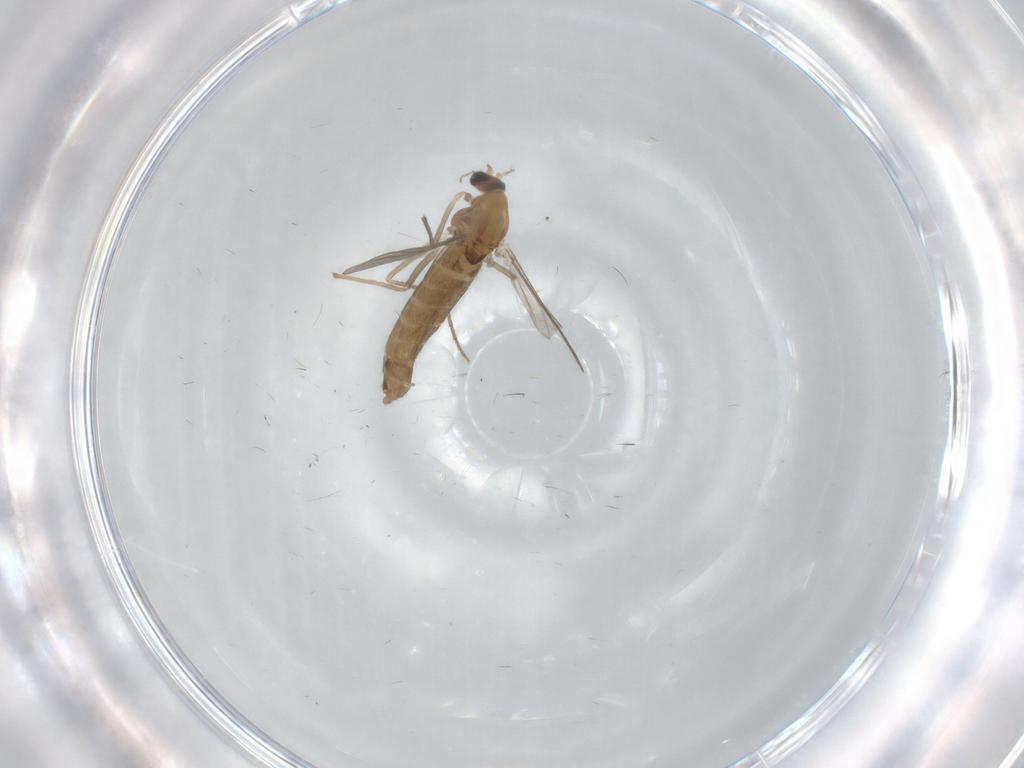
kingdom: Animalia
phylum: Arthropoda
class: Insecta
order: Diptera
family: Chironomidae
